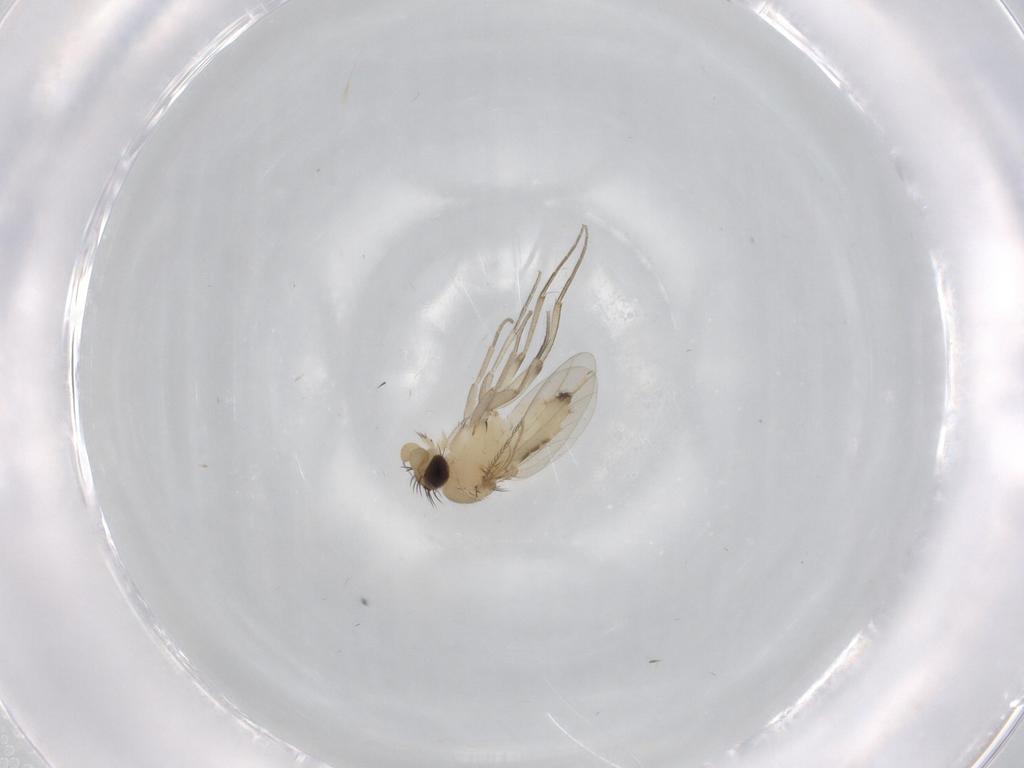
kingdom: Animalia
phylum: Arthropoda
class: Insecta
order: Diptera
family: Phoridae
